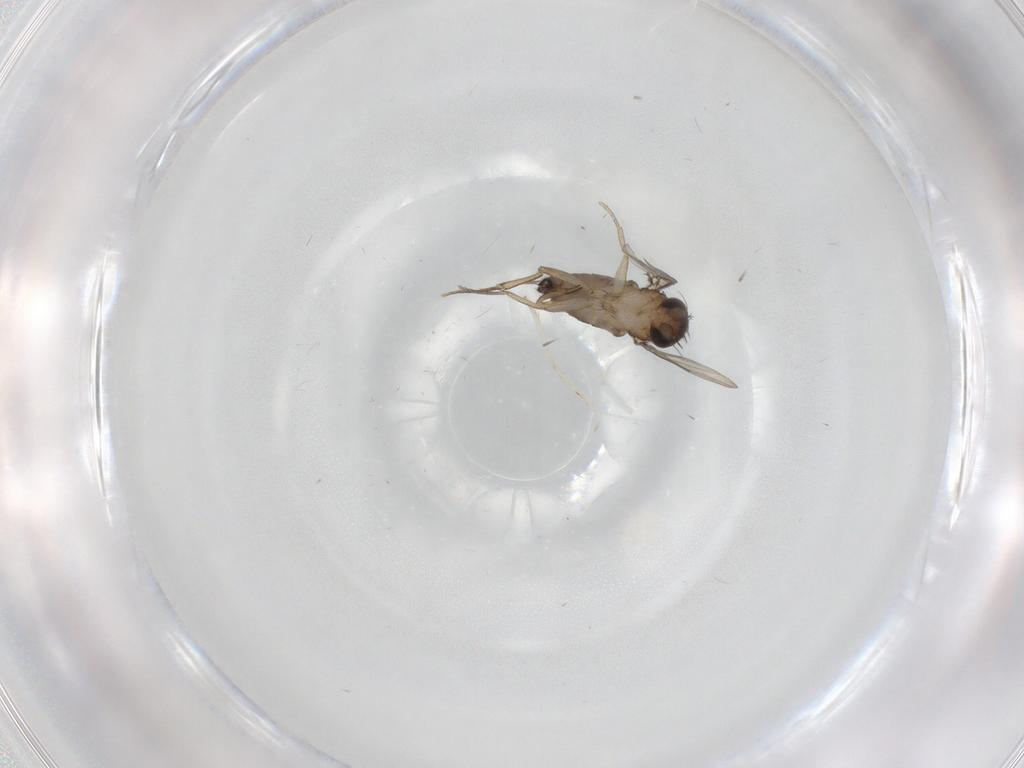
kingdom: Animalia
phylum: Arthropoda
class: Insecta
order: Diptera
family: Cecidomyiidae
